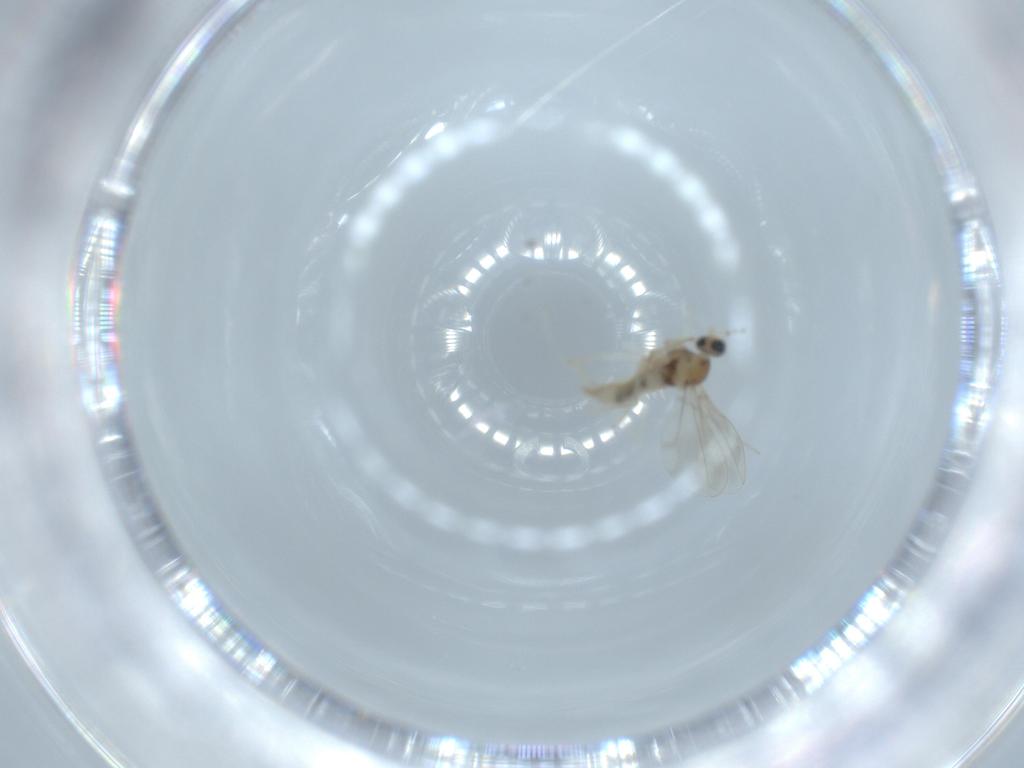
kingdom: Animalia
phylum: Arthropoda
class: Insecta
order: Diptera
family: Cecidomyiidae
